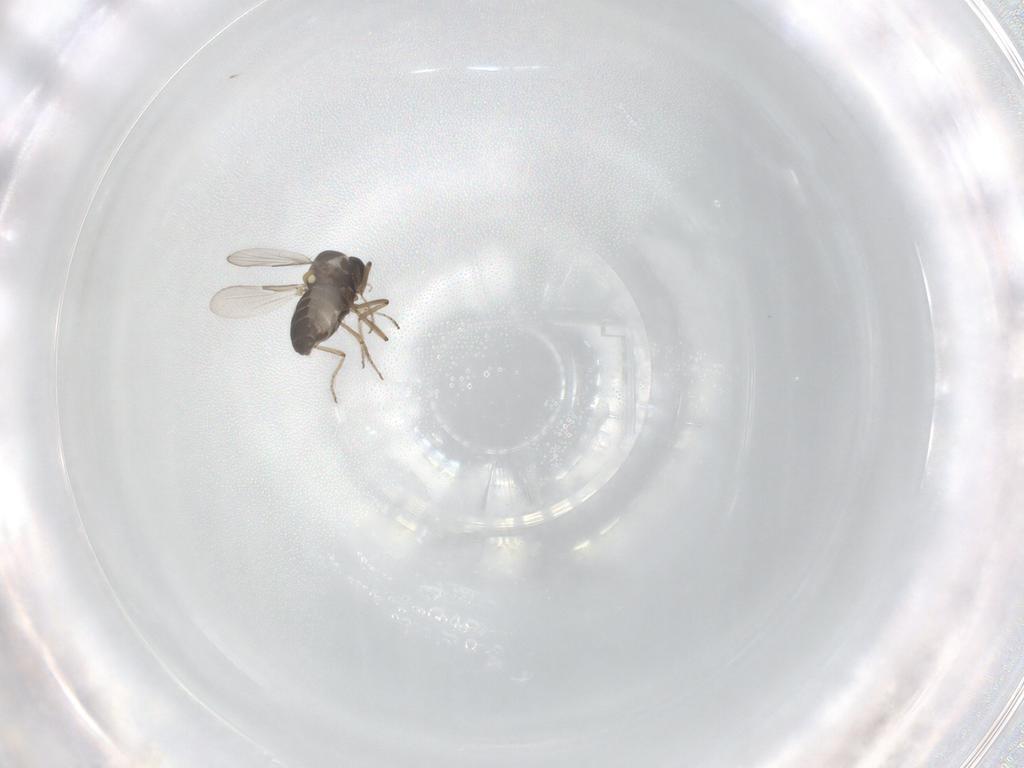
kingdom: Animalia
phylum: Arthropoda
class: Insecta
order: Diptera
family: Ceratopogonidae
